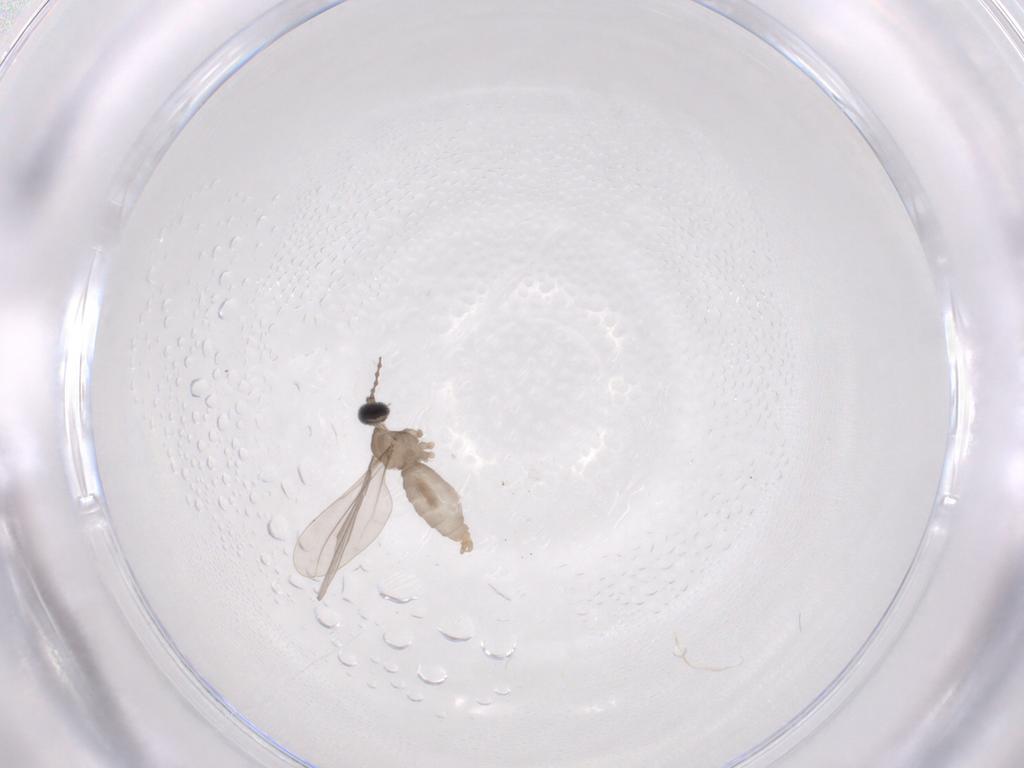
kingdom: Animalia
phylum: Arthropoda
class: Insecta
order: Diptera
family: Cecidomyiidae
